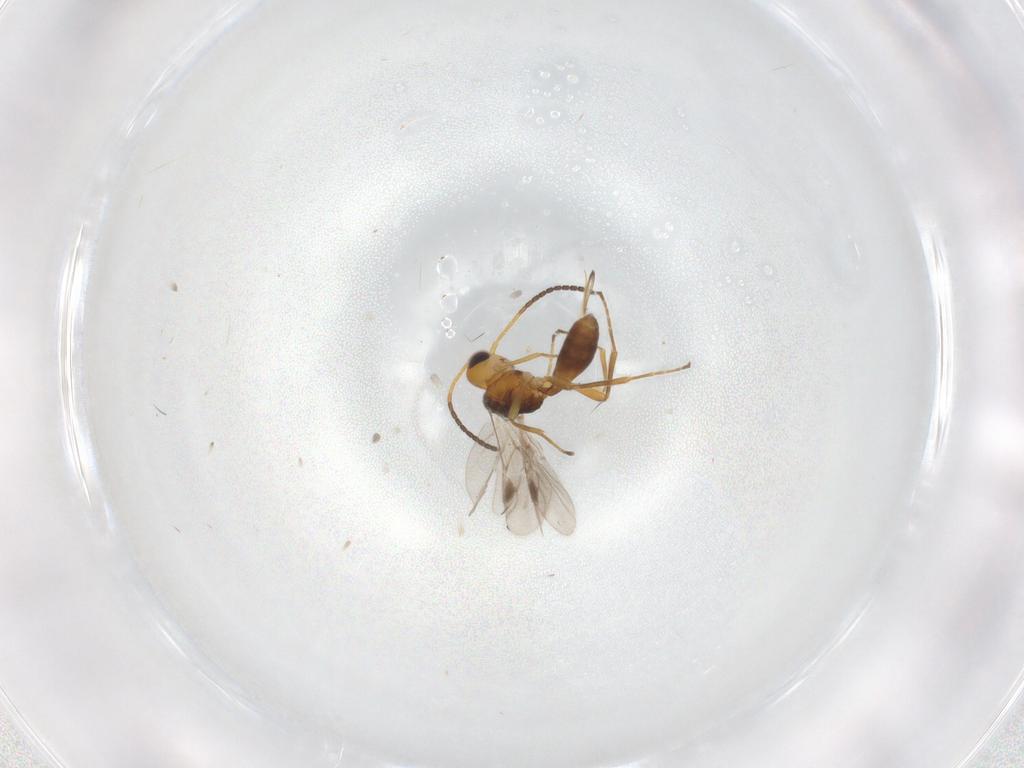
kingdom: Animalia
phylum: Arthropoda
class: Insecta
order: Hymenoptera
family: Braconidae
